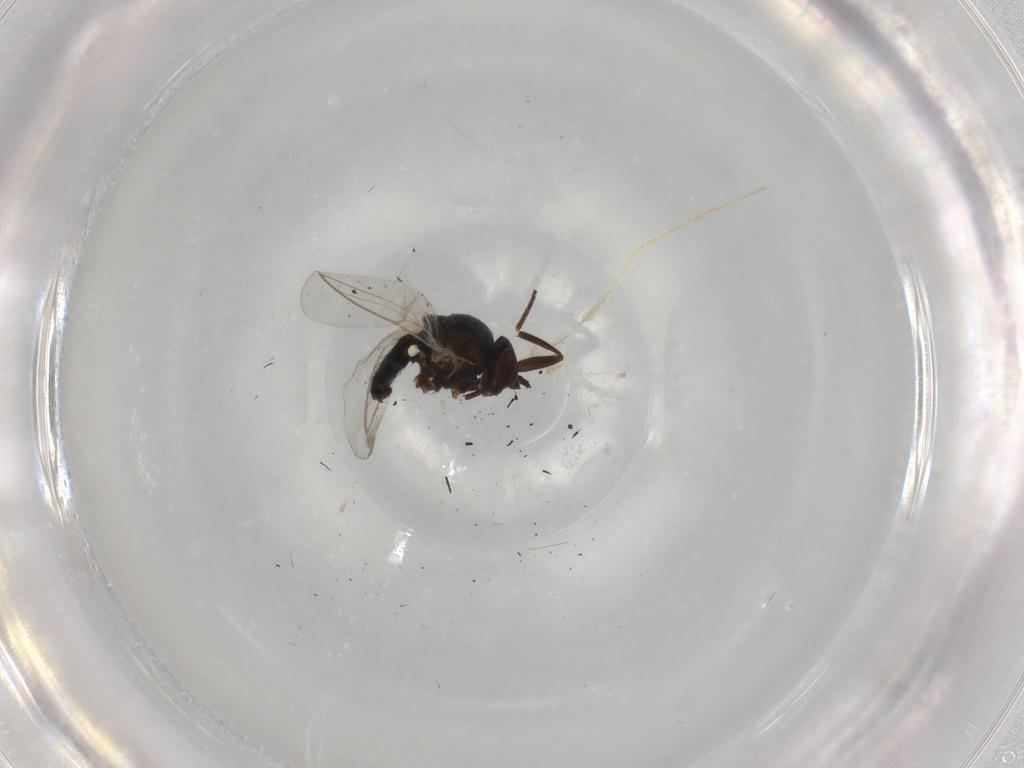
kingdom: Animalia
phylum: Arthropoda
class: Insecta
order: Diptera
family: Agromyzidae
